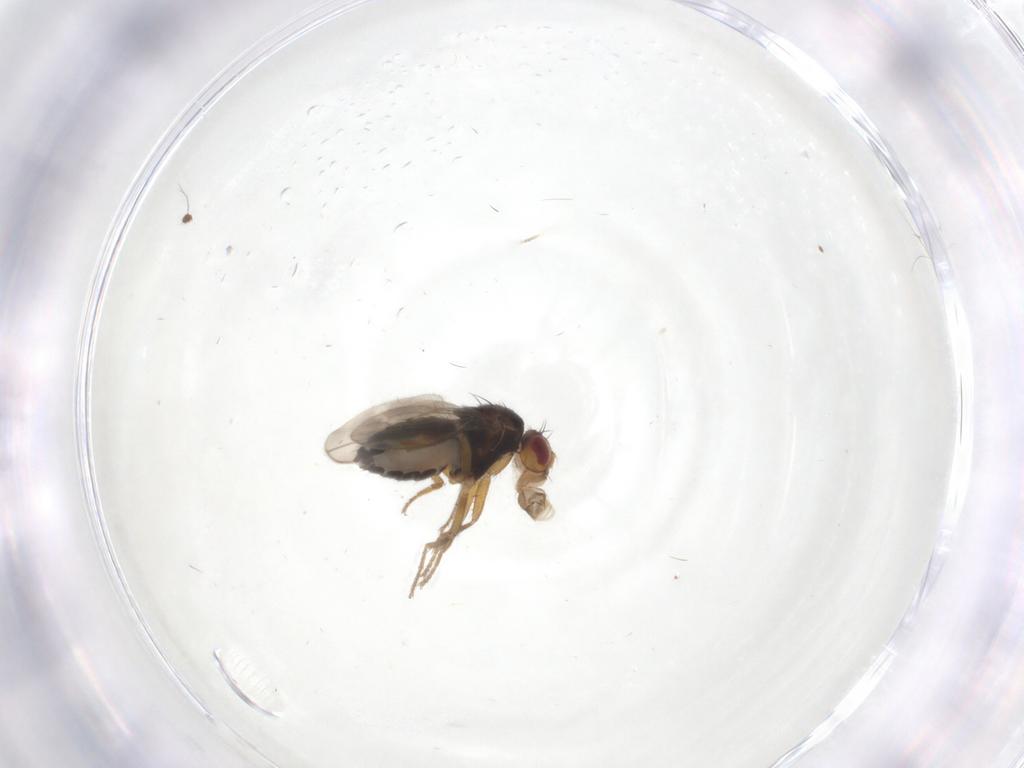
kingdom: Animalia
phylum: Arthropoda
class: Insecta
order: Diptera
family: Sphaeroceridae
